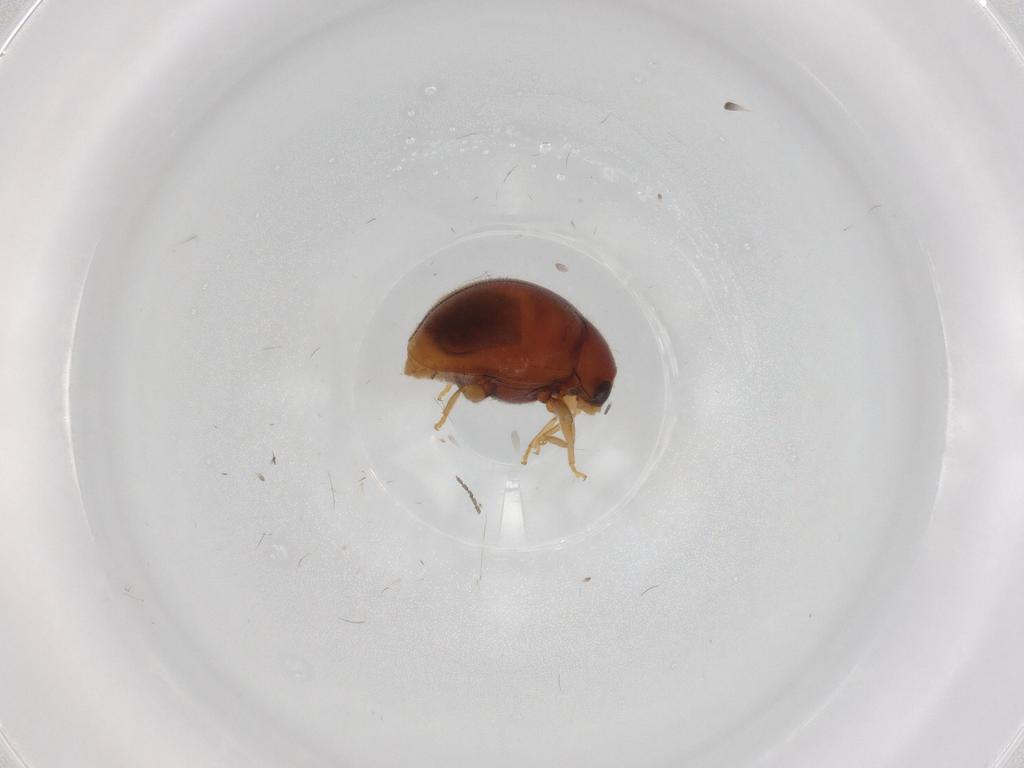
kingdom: Animalia
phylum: Arthropoda
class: Insecta
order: Coleoptera
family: Coccinellidae
